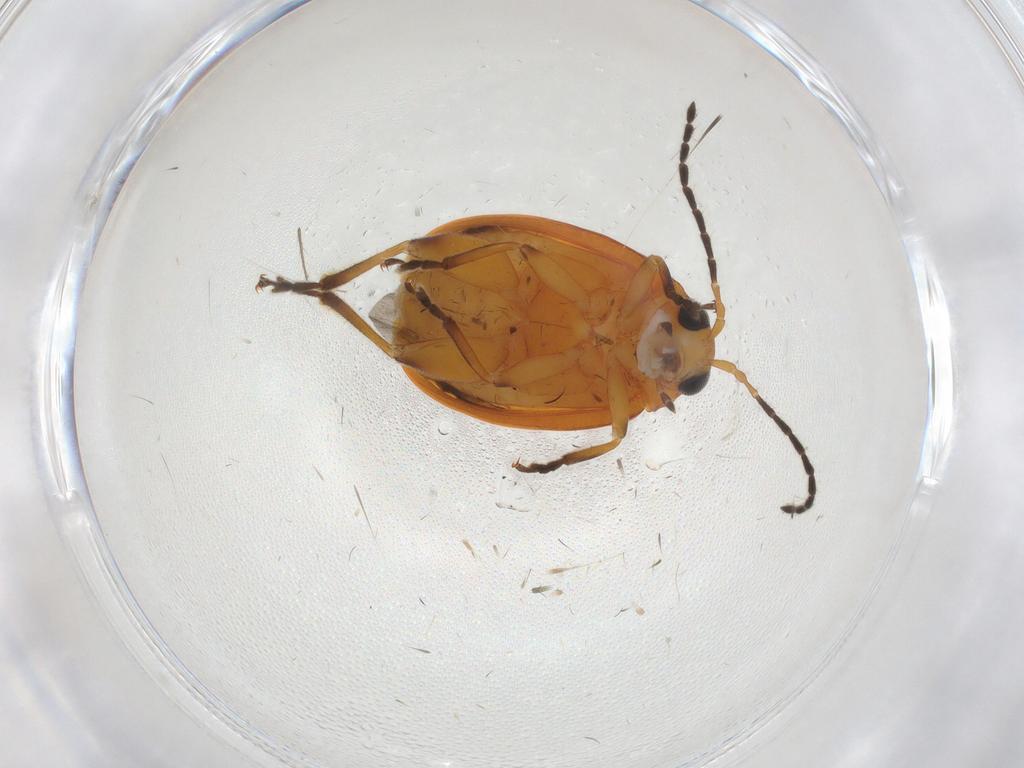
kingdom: Animalia
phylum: Arthropoda
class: Insecta
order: Coleoptera
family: Chrysomelidae
